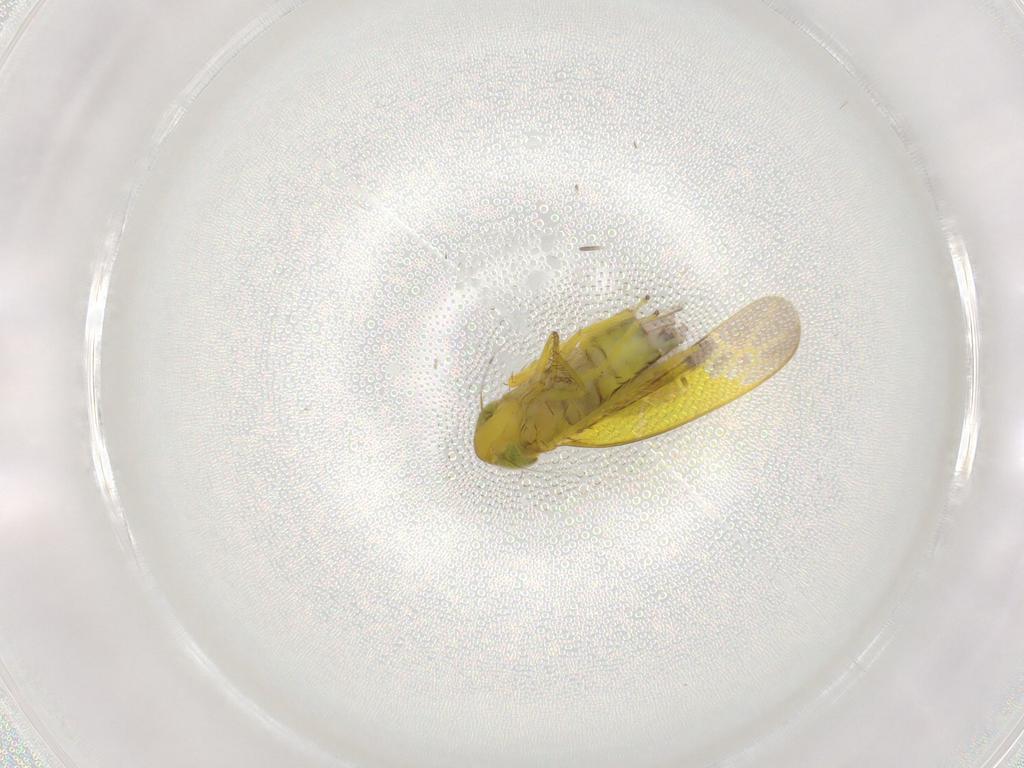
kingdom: Animalia
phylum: Arthropoda
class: Insecta
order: Hemiptera
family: Cicadellidae
